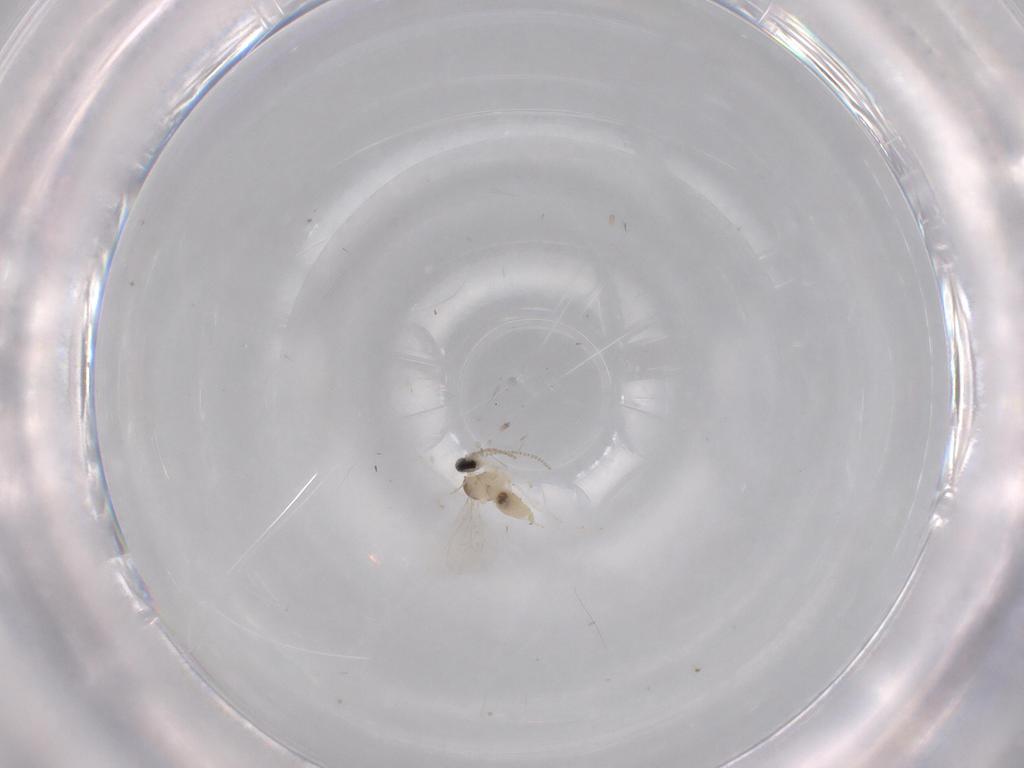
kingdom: Animalia
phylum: Arthropoda
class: Insecta
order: Diptera
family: Cecidomyiidae
